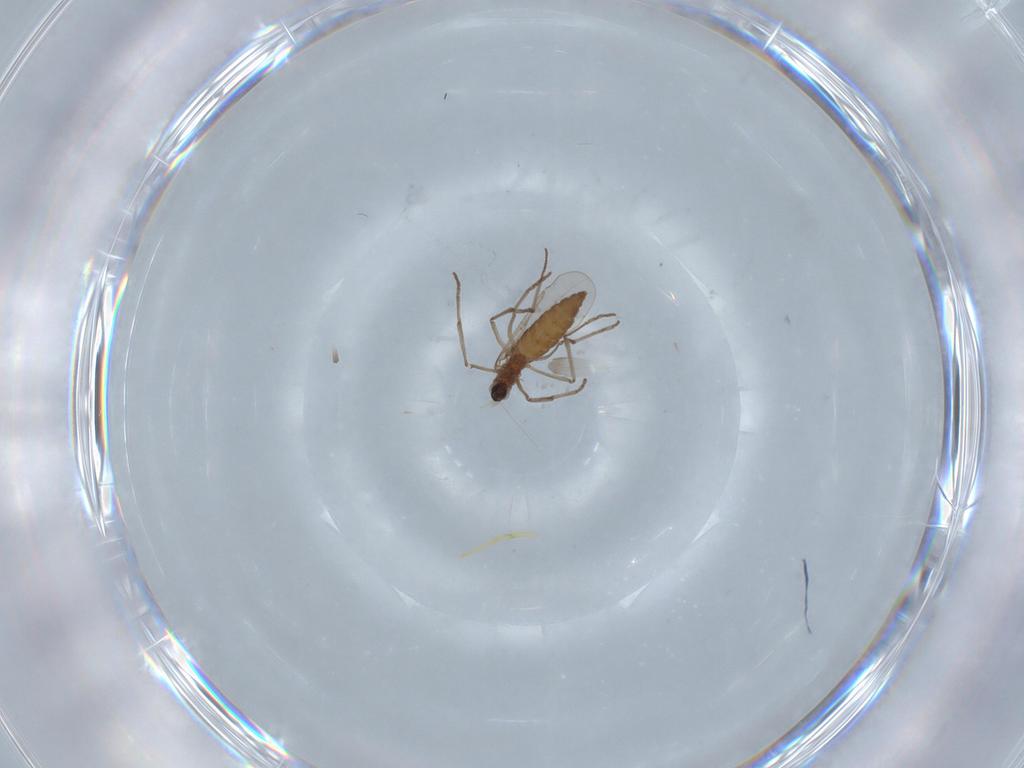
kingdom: Animalia
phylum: Arthropoda
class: Insecta
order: Diptera
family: Cecidomyiidae
